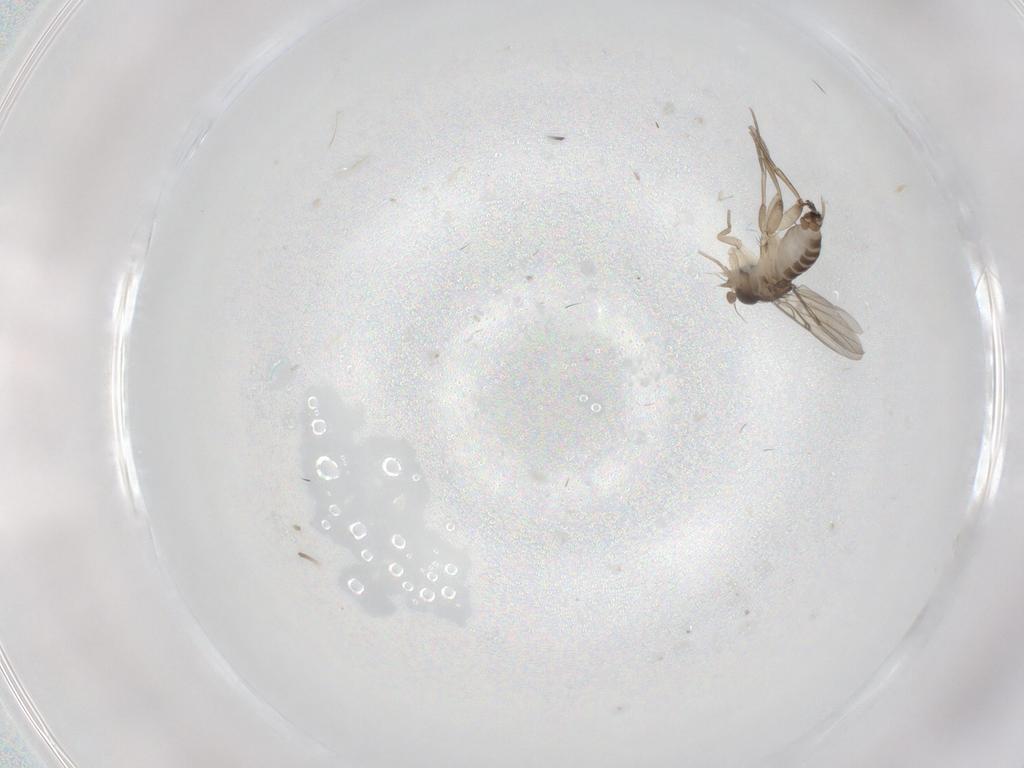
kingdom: Animalia
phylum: Arthropoda
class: Insecta
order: Diptera
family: Phoridae
